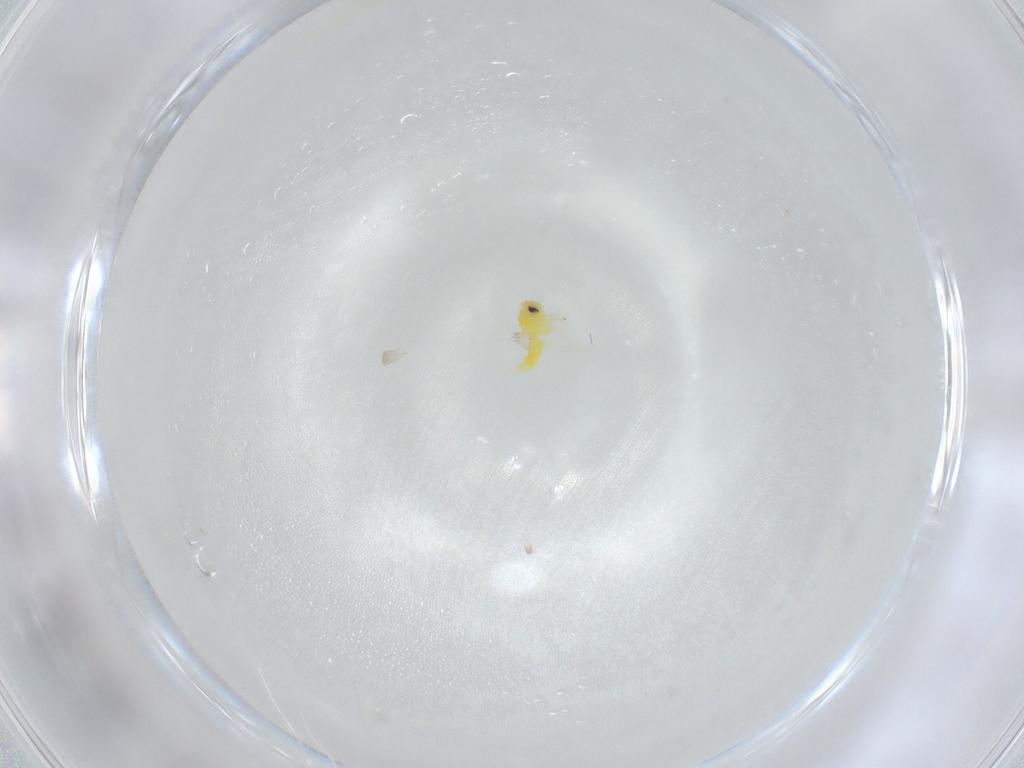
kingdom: Animalia
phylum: Arthropoda
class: Insecta
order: Hemiptera
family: Aleyrodidae
